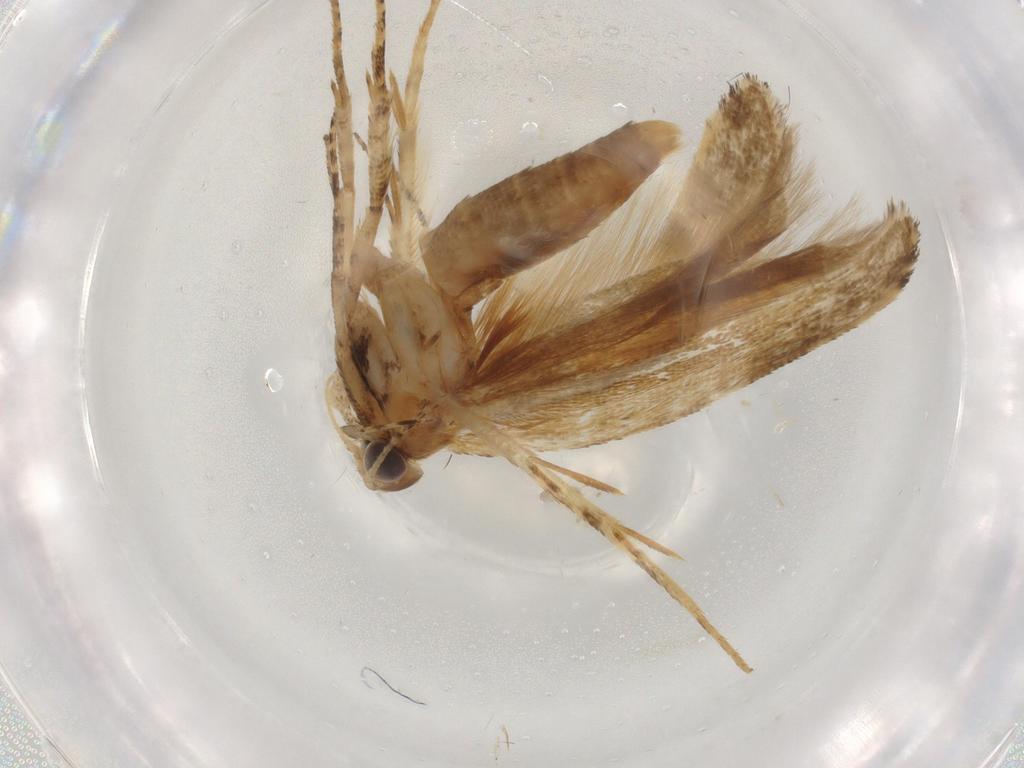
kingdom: Animalia
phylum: Arthropoda
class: Insecta
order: Lepidoptera
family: Gelechiidae
